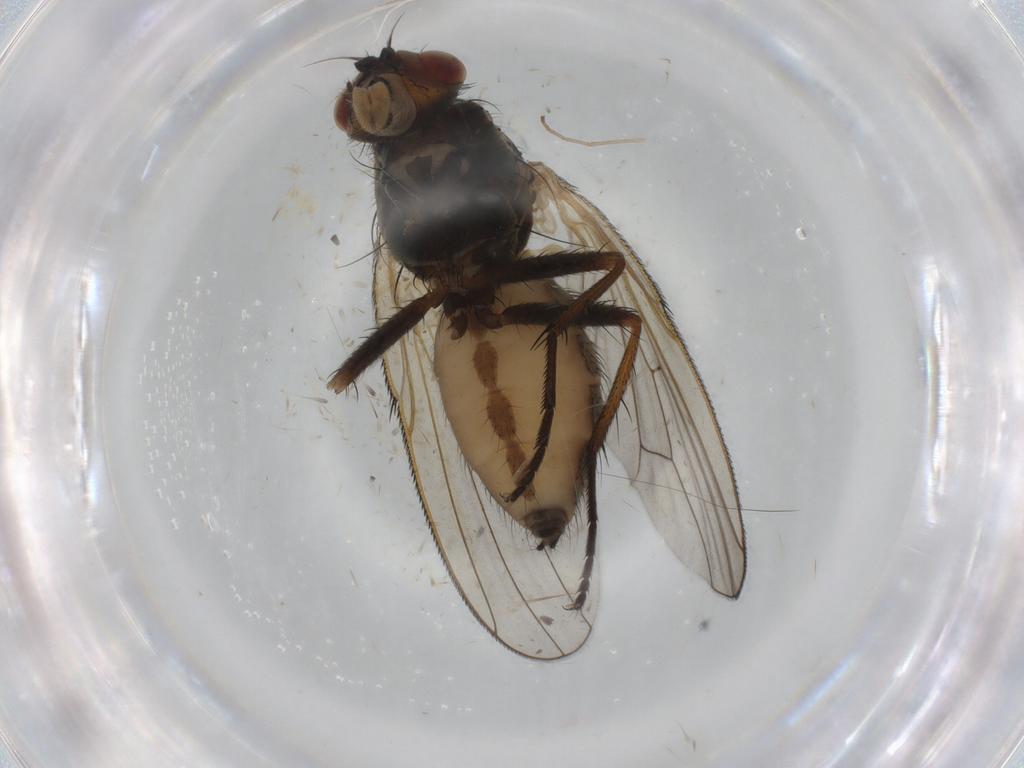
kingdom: Animalia
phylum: Arthropoda
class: Insecta
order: Diptera
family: Anthomyiidae
